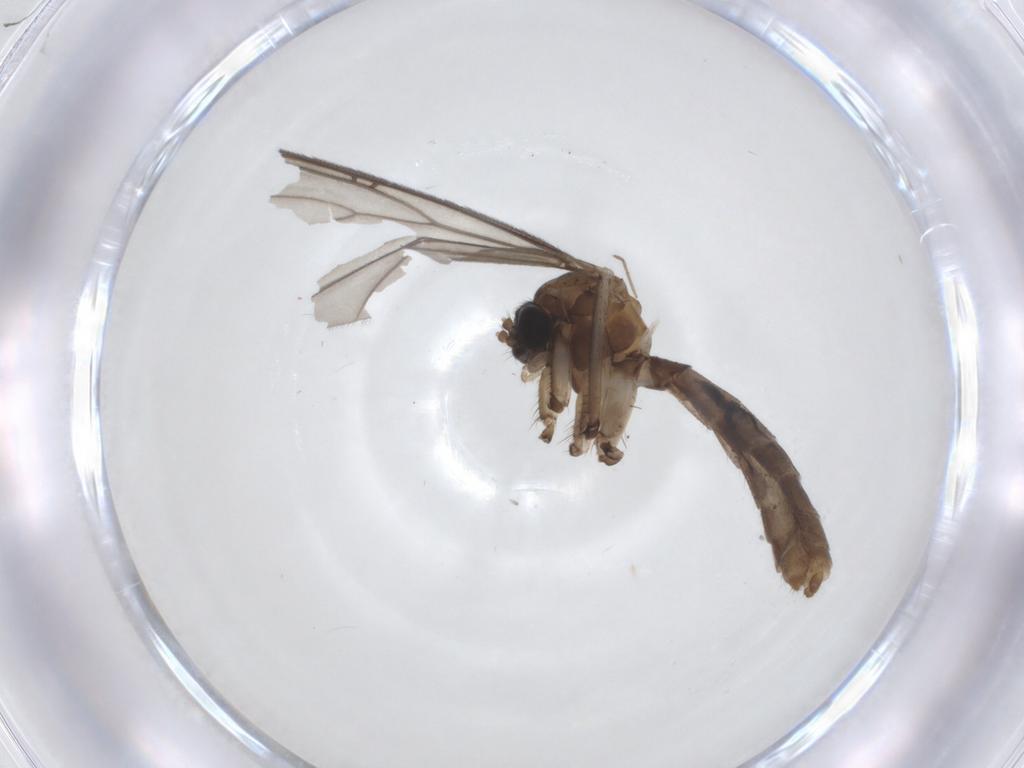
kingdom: Animalia
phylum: Arthropoda
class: Insecta
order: Diptera
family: Mycetophilidae
